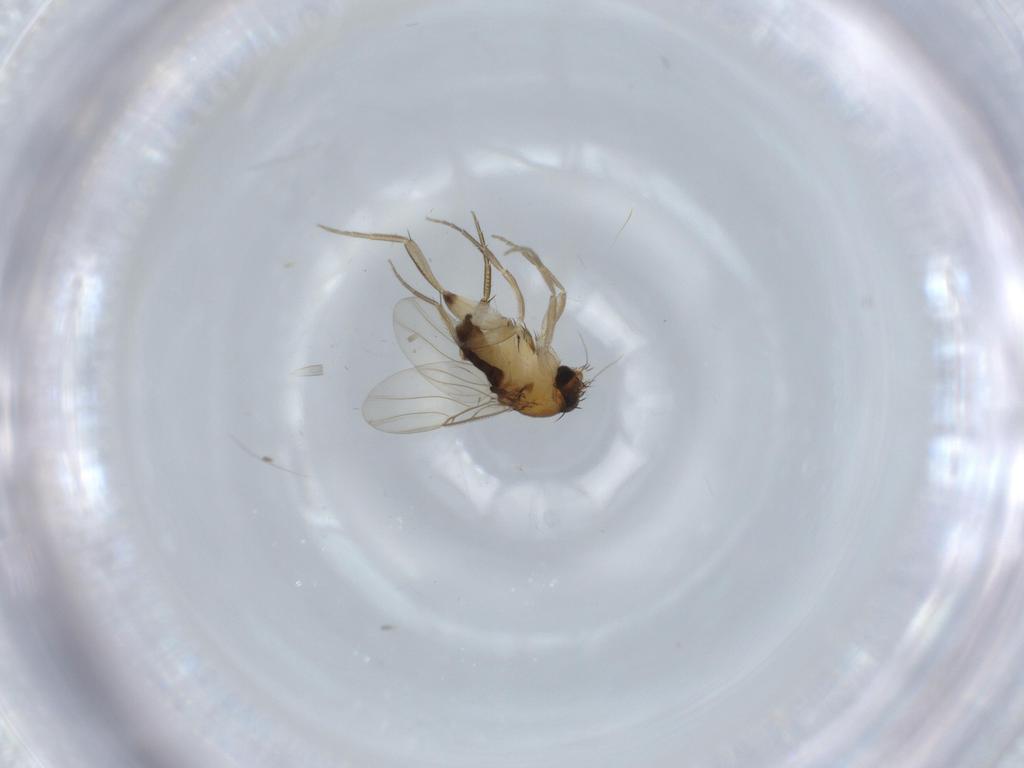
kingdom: Animalia
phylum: Arthropoda
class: Insecta
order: Diptera
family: Phoridae
